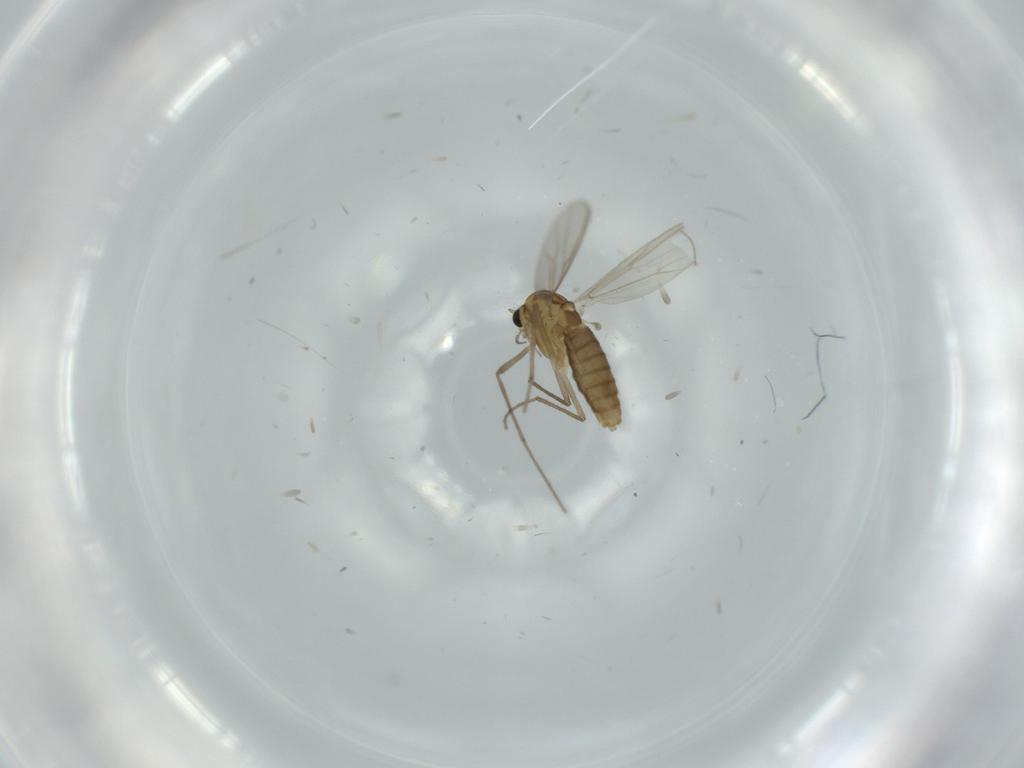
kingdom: Animalia
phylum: Arthropoda
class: Insecta
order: Diptera
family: Chironomidae
